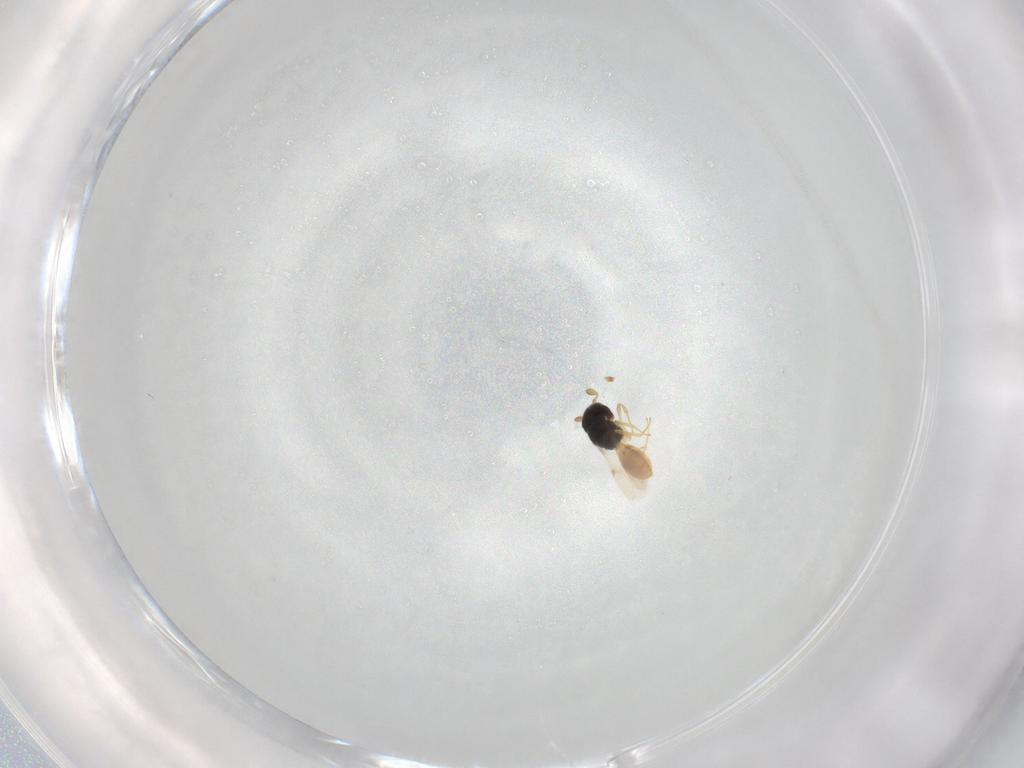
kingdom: Animalia
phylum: Arthropoda
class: Insecta
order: Hymenoptera
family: Scelionidae
